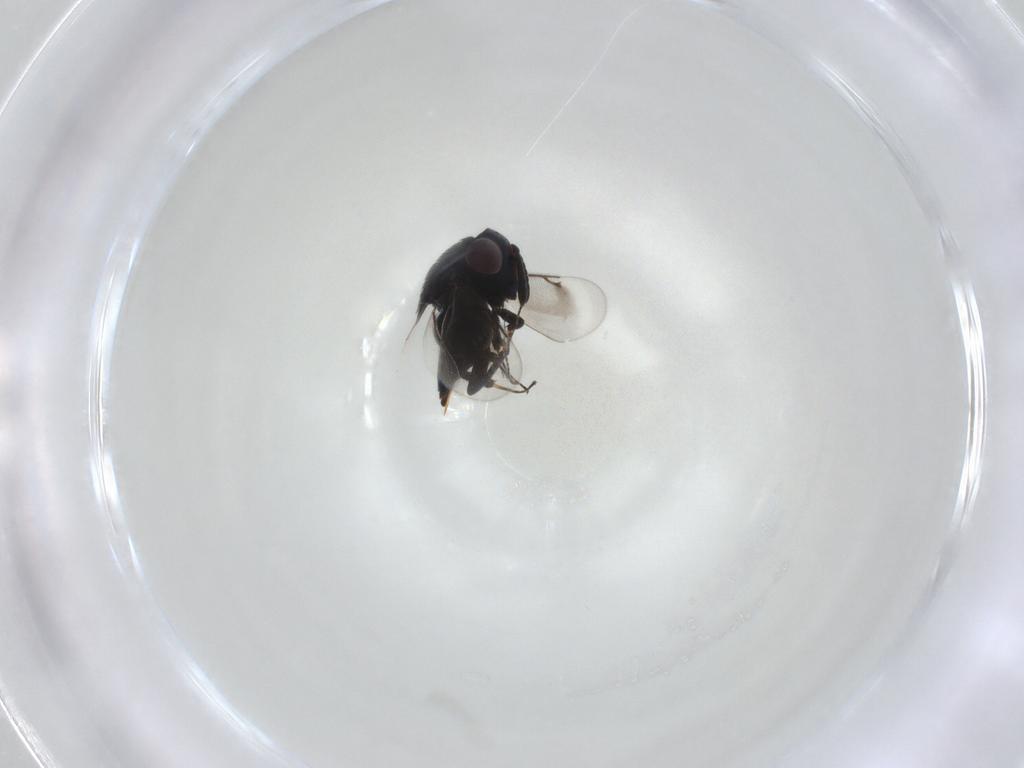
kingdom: Animalia
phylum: Arthropoda
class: Insecta
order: Hymenoptera
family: Eunotidae
